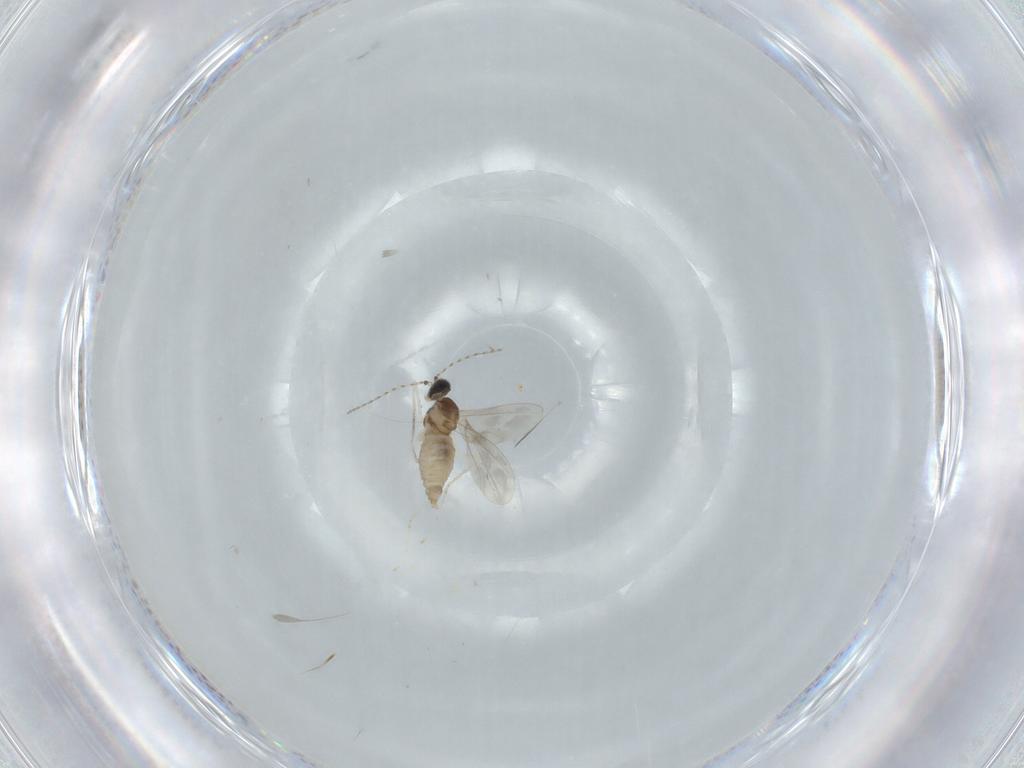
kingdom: Animalia
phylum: Arthropoda
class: Insecta
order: Diptera
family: Cecidomyiidae
